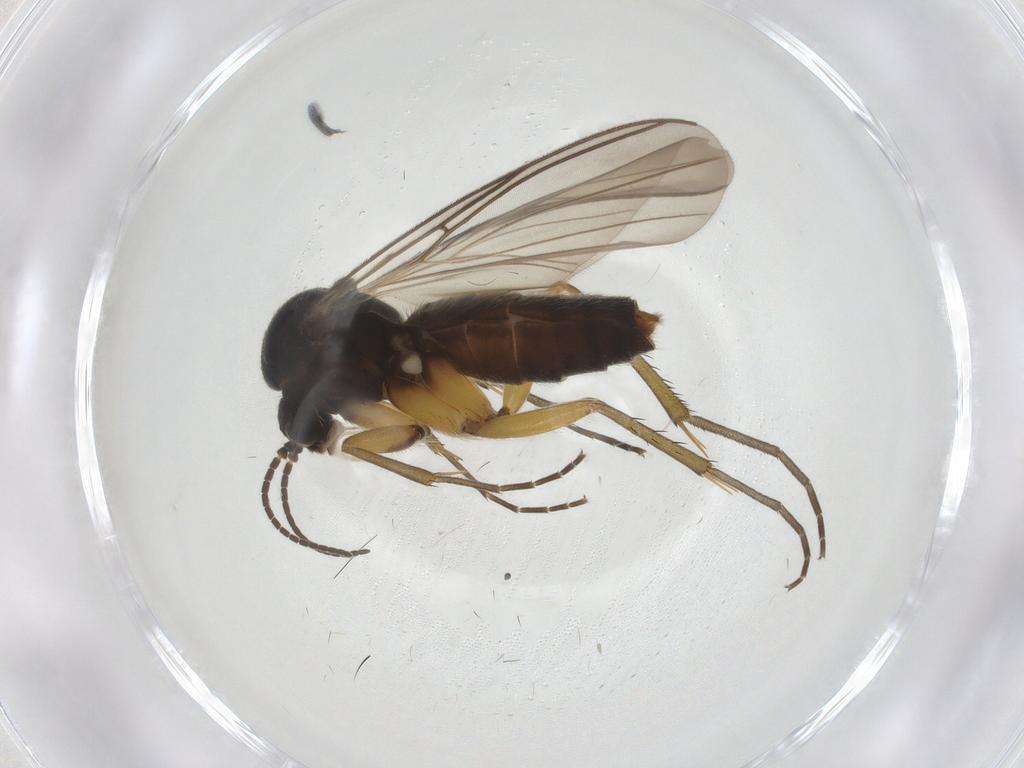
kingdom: Animalia
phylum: Arthropoda
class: Insecta
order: Diptera
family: Mycetophilidae
